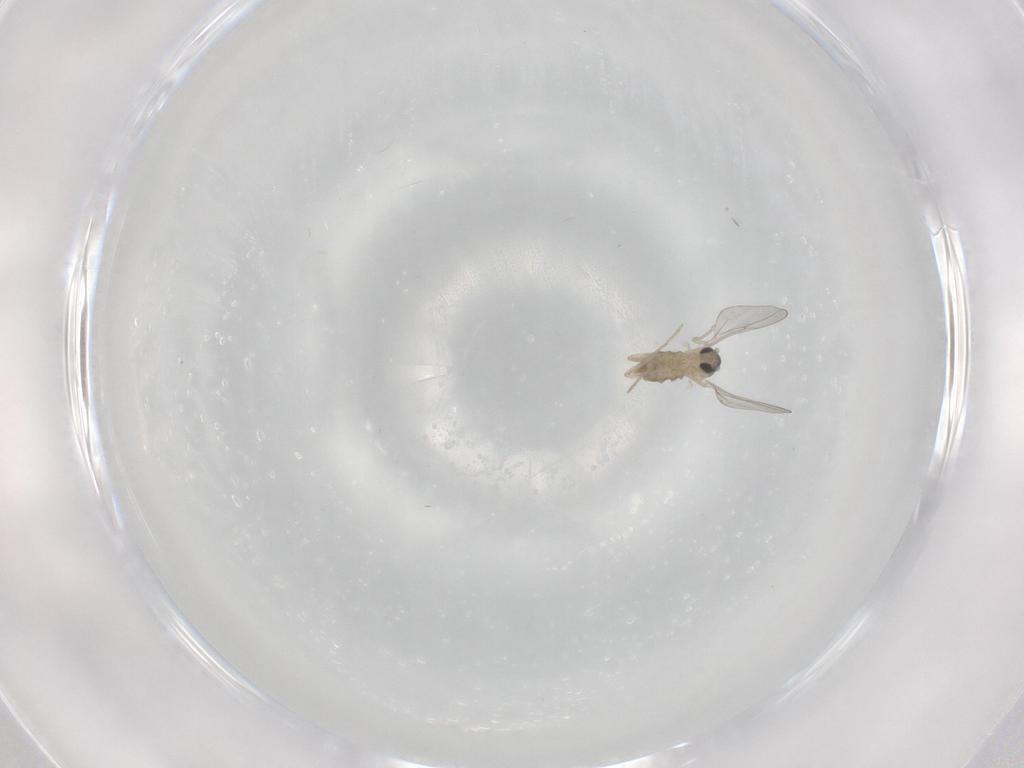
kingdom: Animalia
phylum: Arthropoda
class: Insecta
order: Diptera
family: Cecidomyiidae
